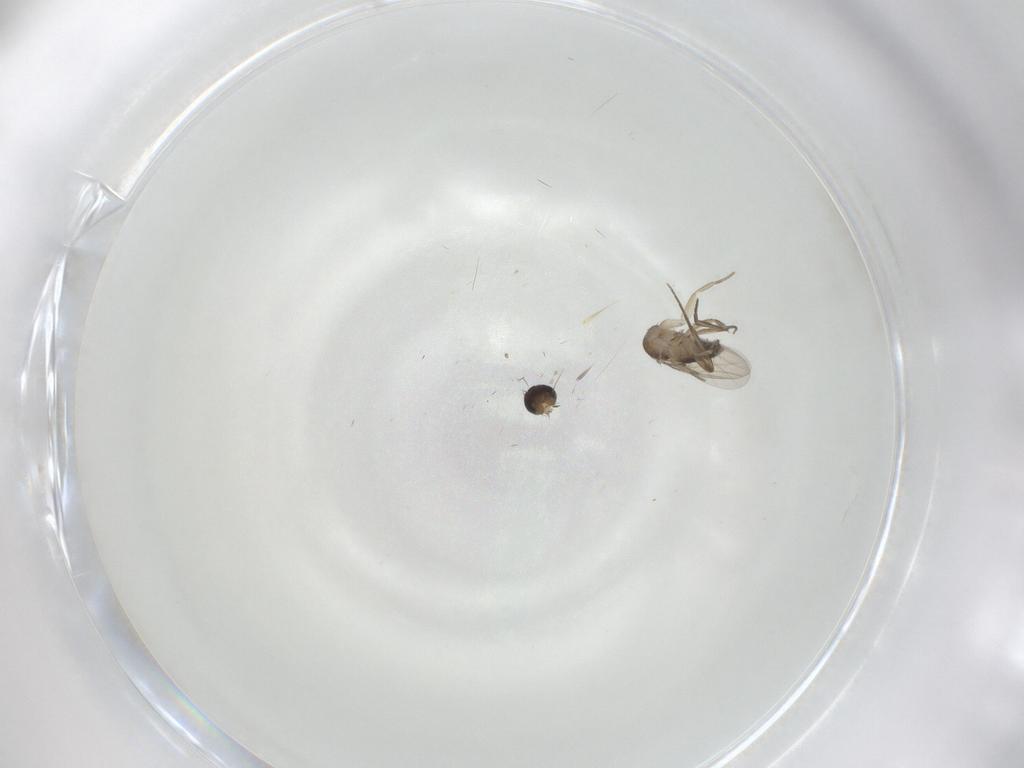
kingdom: Animalia
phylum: Arthropoda
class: Insecta
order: Diptera
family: Phoridae
